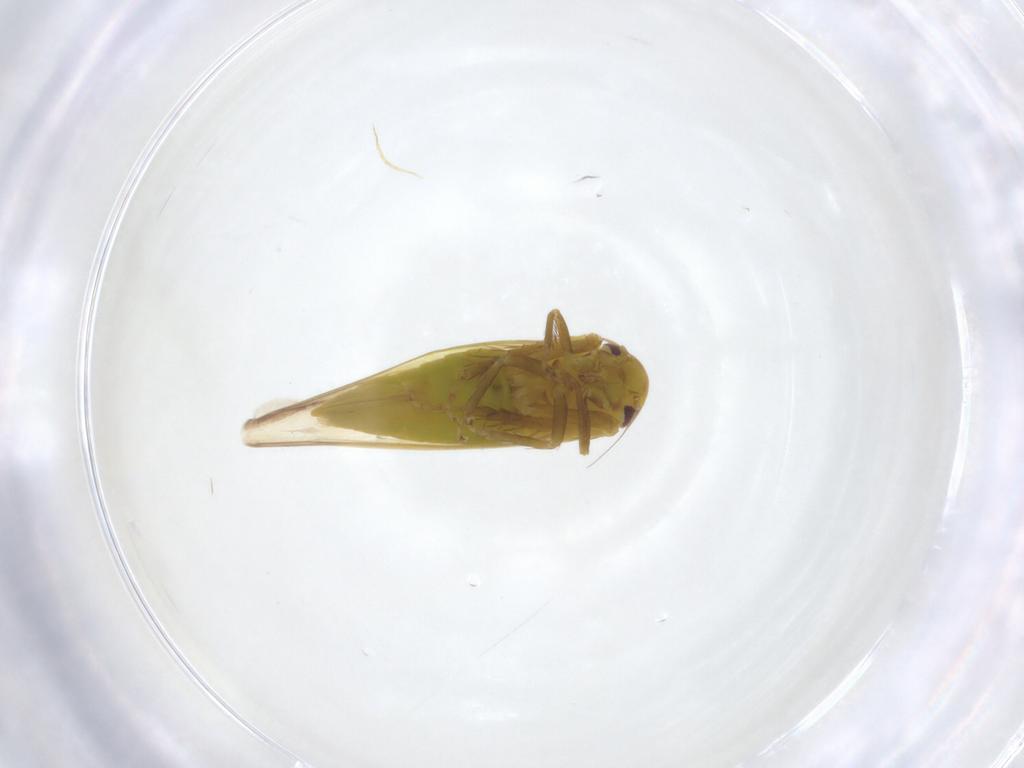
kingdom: Animalia
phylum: Arthropoda
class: Insecta
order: Hemiptera
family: Cicadellidae
